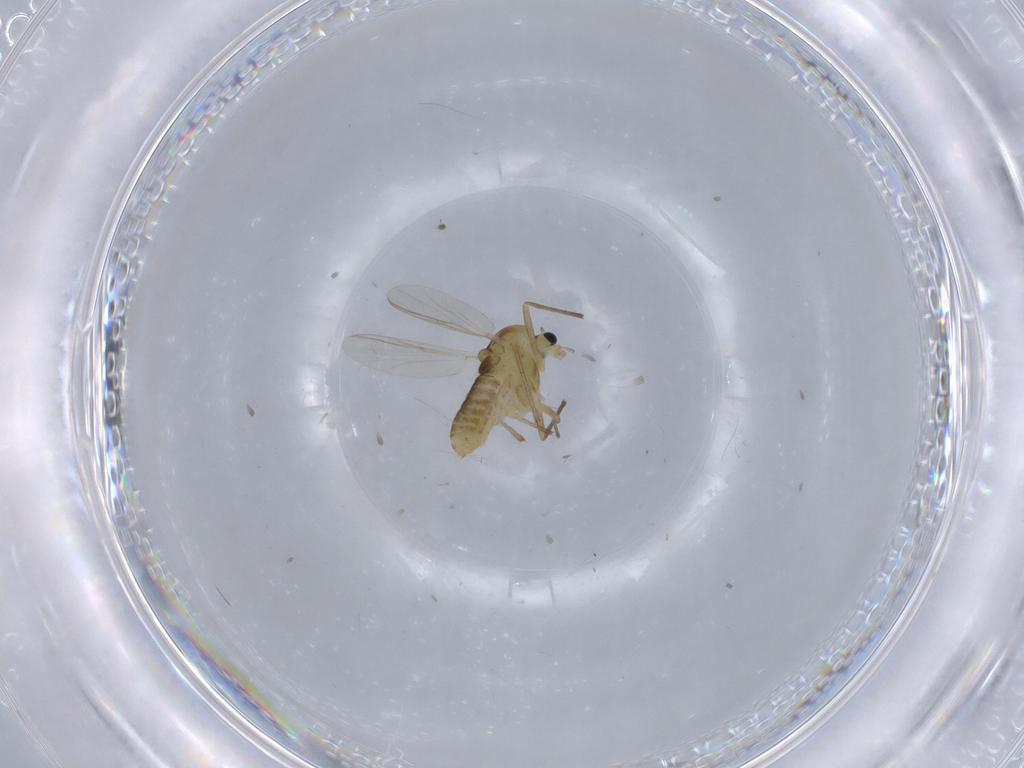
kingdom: Animalia
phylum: Arthropoda
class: Insecta
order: Diptera
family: Chironomidae
